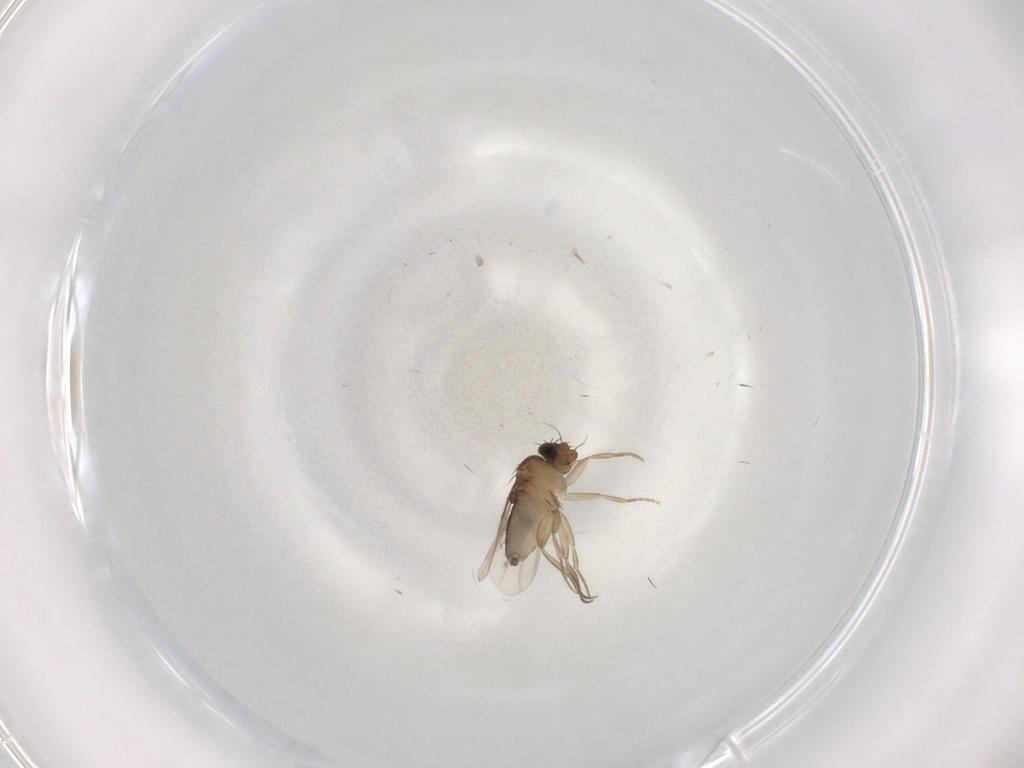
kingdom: Animalia
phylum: Arthropoda
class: Insecta
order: Diptera
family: Phoridae
